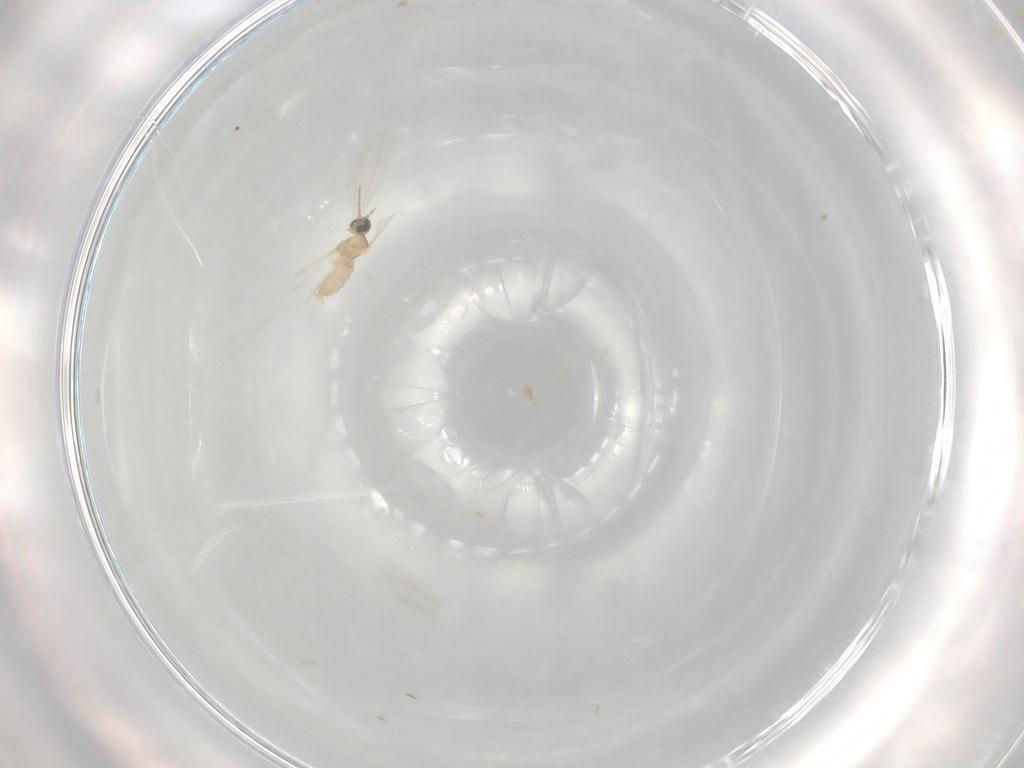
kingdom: Animalia
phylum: Arthropoda
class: Insecta
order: Diptera
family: Cecidomyiidae
